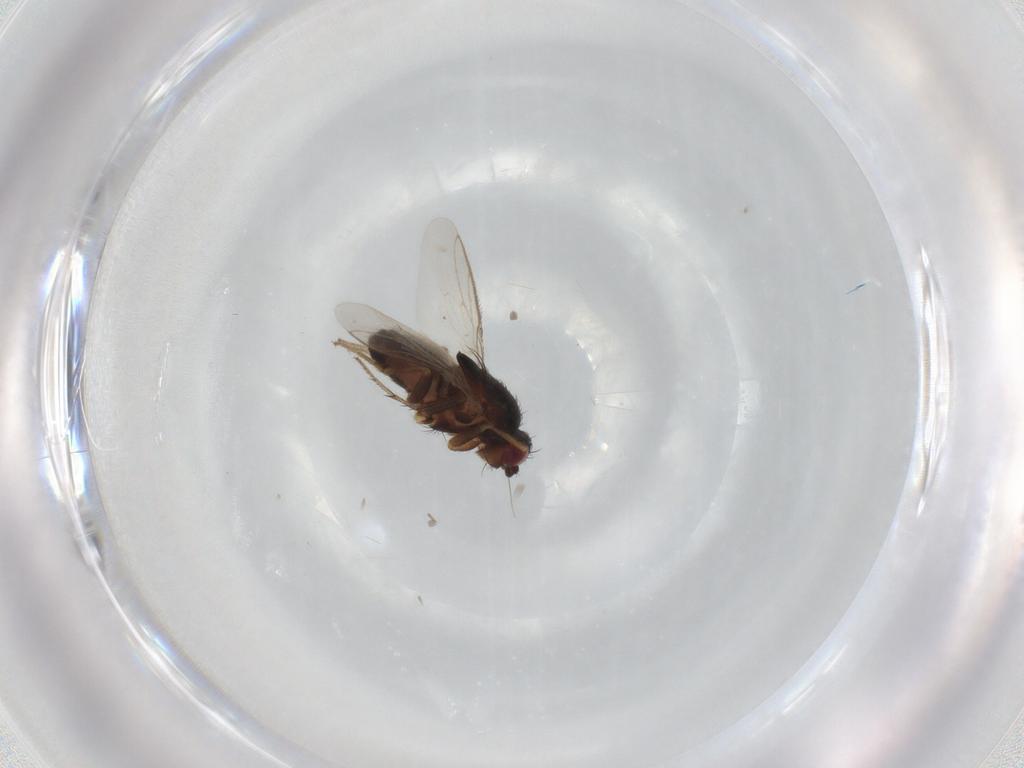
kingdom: Animalia
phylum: Arthropoda
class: Insecta
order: Diptera
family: Sphaeroceridae
